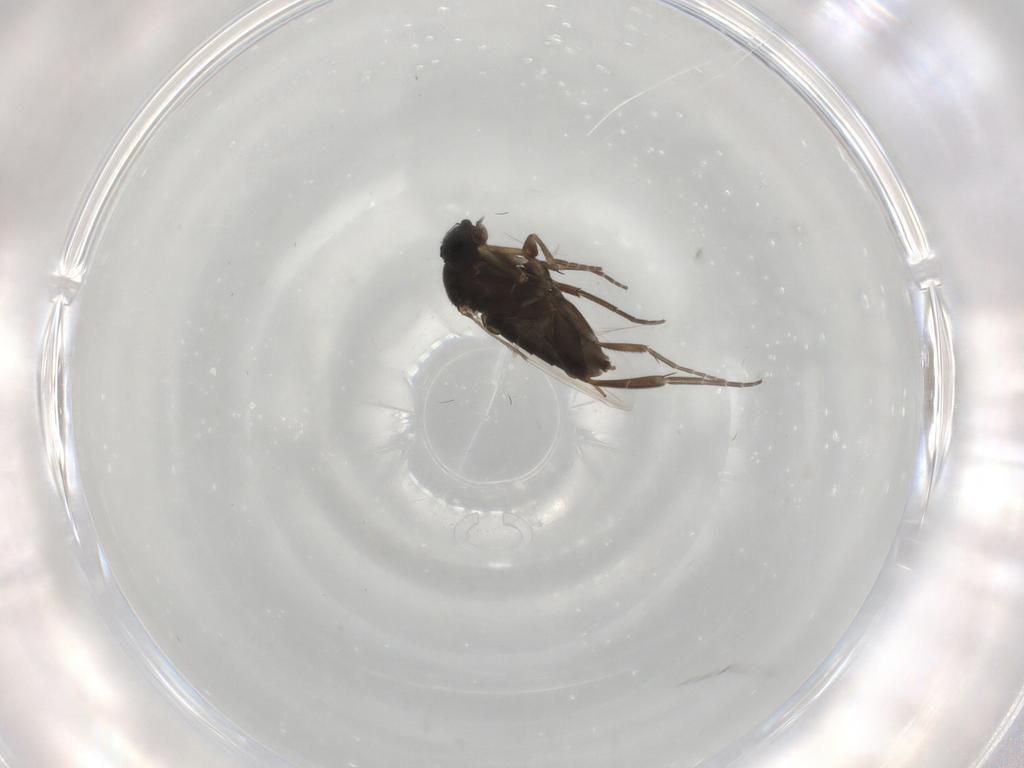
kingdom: Animalia
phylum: Arthropoda
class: Insecta
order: Diptera
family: Phoridae
